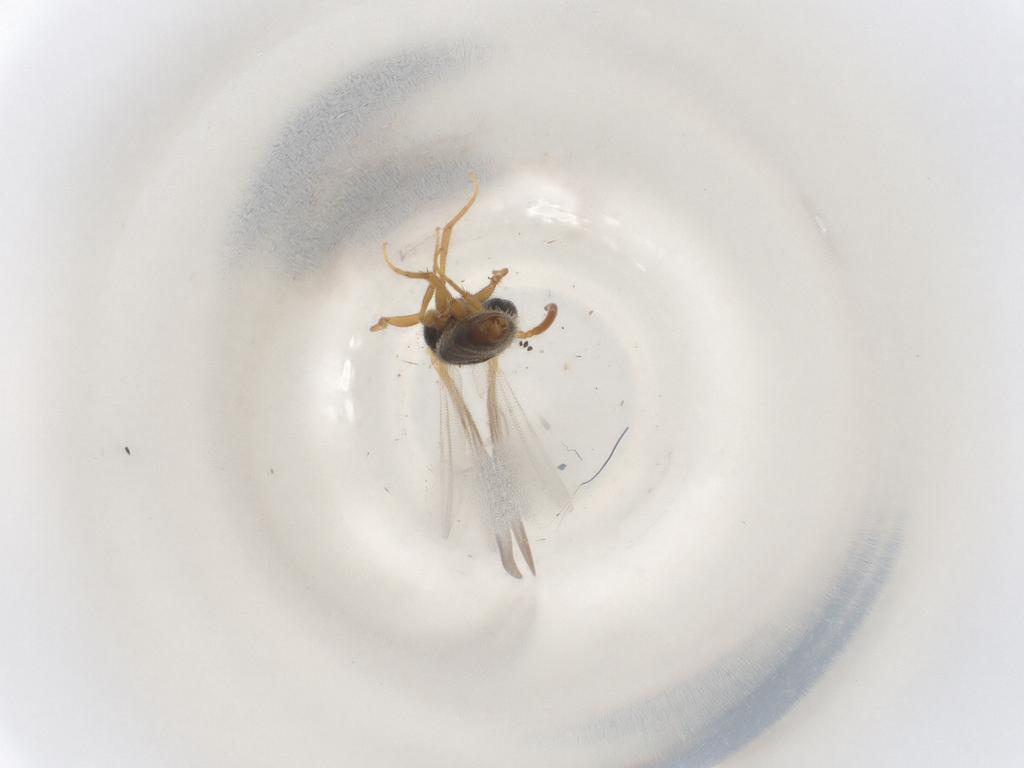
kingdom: Animalia
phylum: Arthropoda
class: Insecta
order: Hymenoptera
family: Bethylidae
